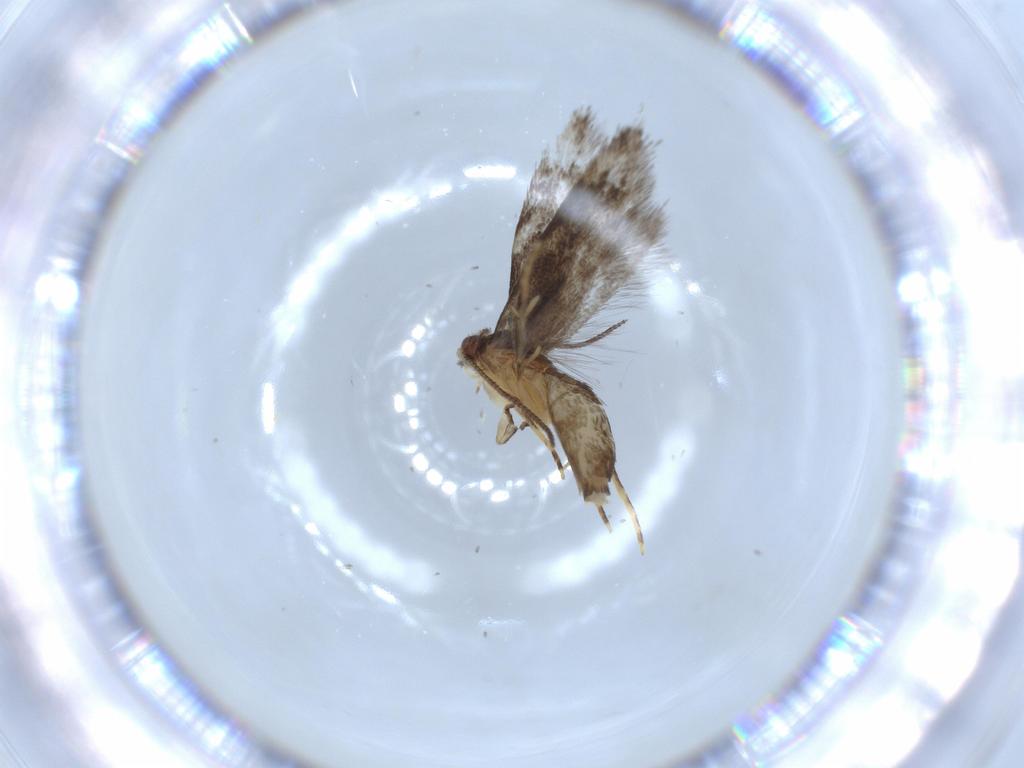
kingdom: Animalia
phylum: Arthropoda
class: Insecta
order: Lepidoptera
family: Tineidae
